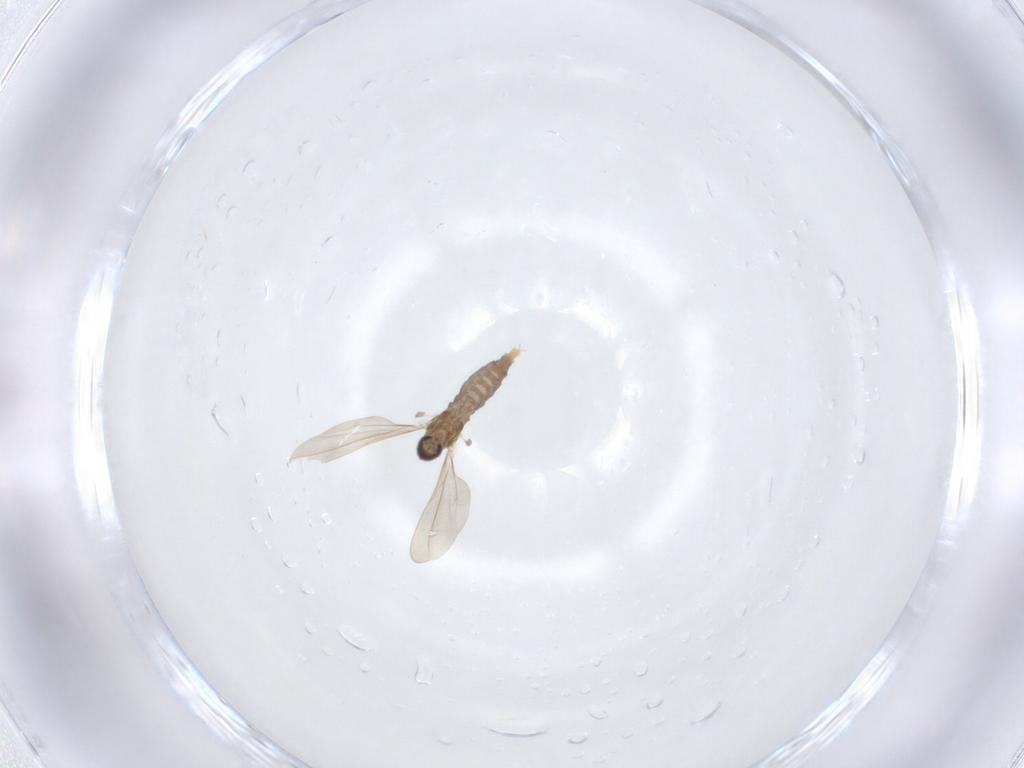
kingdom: Animalia
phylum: Arthropoda
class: Insecta
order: Diptera
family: Cecidomyiidae
